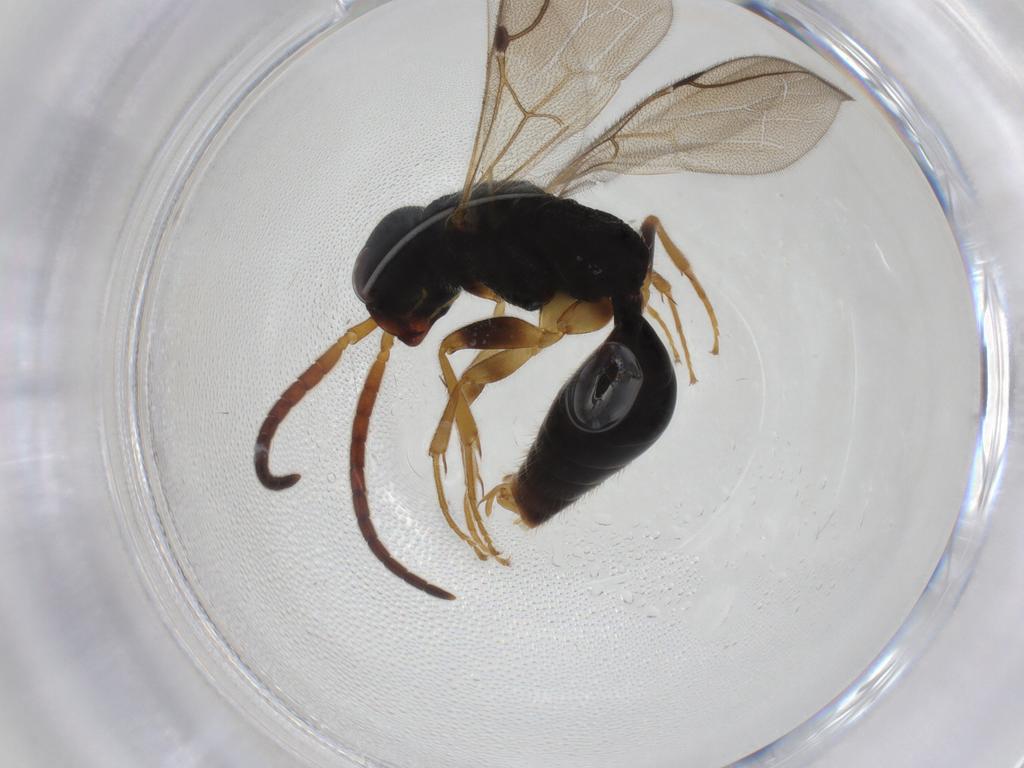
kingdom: Animalia
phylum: Arthropoda
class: Insecta
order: Hymenoptera
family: Bethylidae
